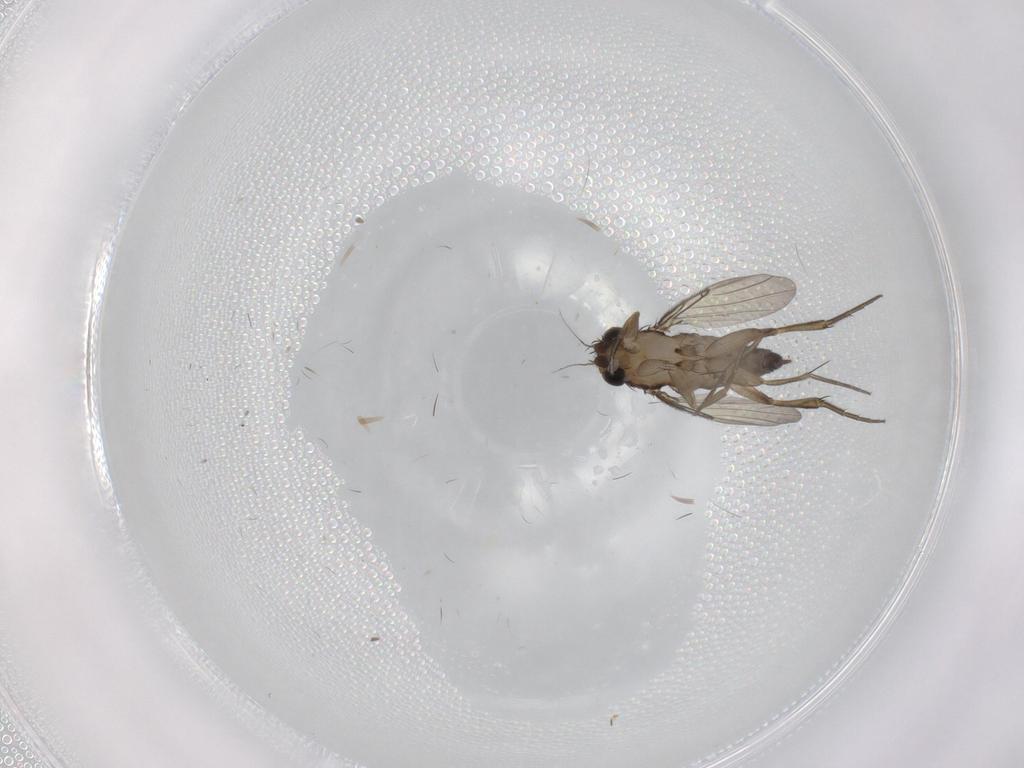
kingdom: Animalia
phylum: Arthropoda
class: Insecta
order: Diptera
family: Phoridae
